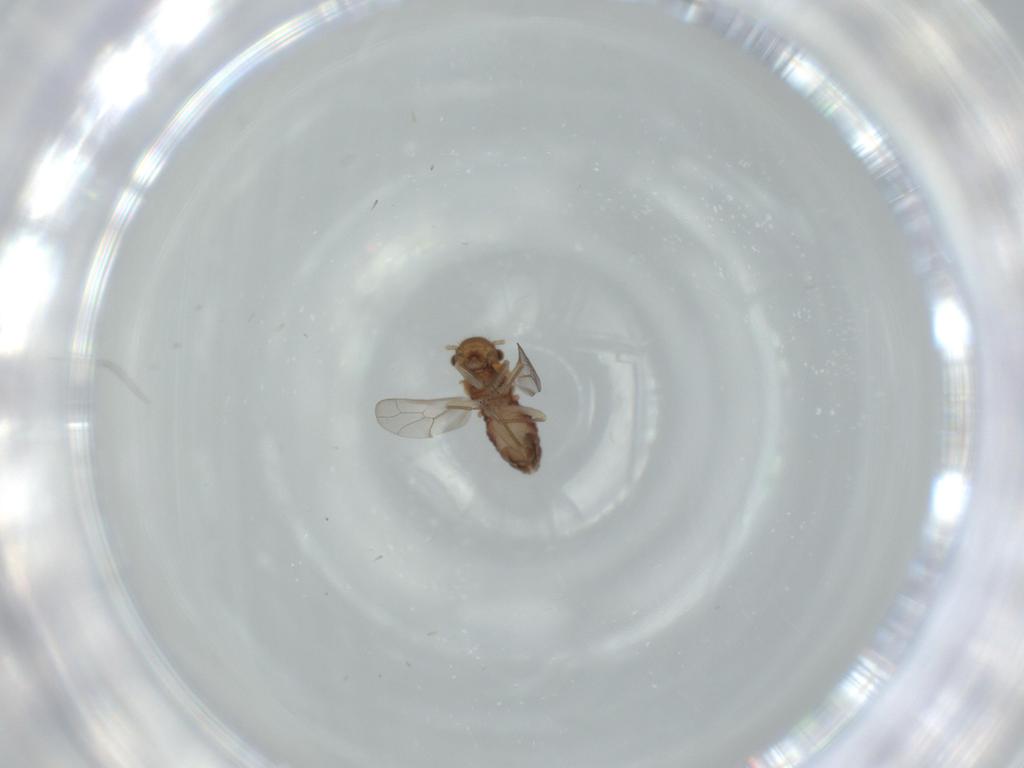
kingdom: Animalia
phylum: Arthropoda
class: Insecta
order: Psocodea
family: Ectopsocidae
